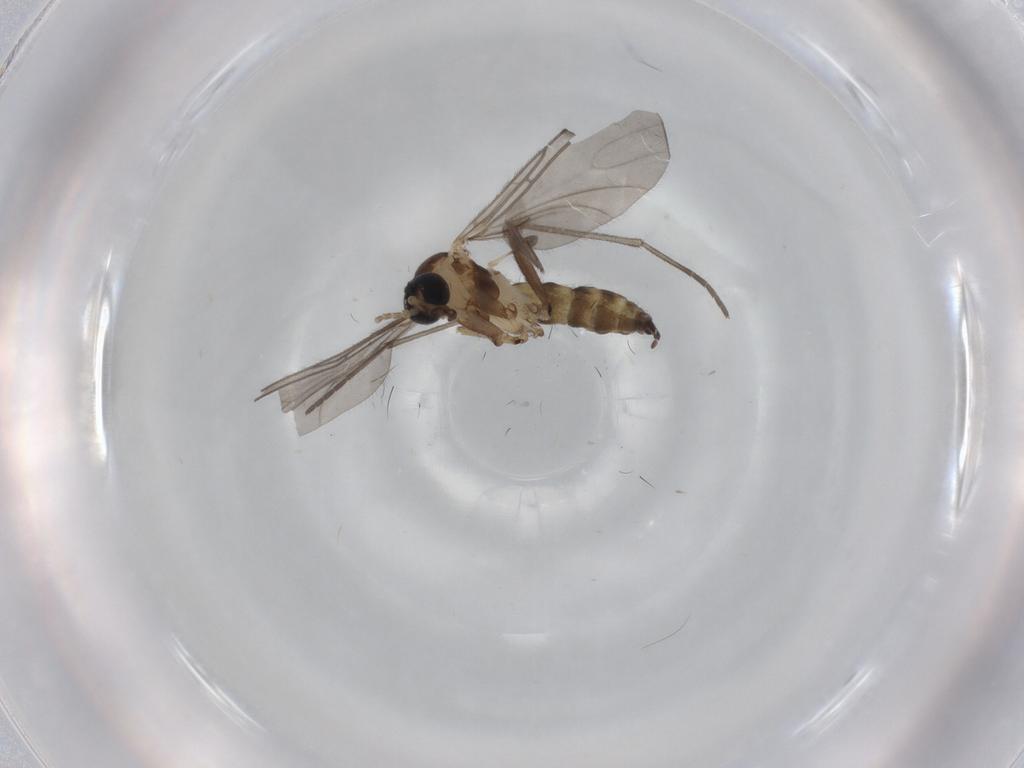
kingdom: Animalia
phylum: Arthropoda
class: Insecta
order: Diptera
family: Sciaridae
